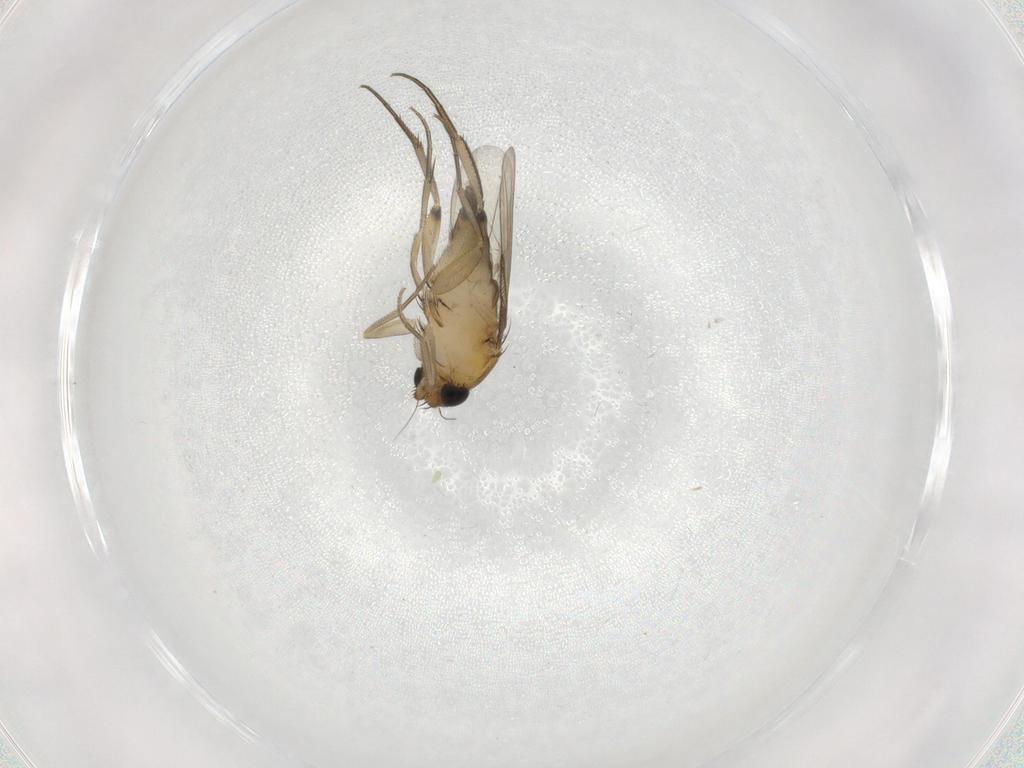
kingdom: Animalia
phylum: Arthropoda
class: Insecta
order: Diptera
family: Phoridae
